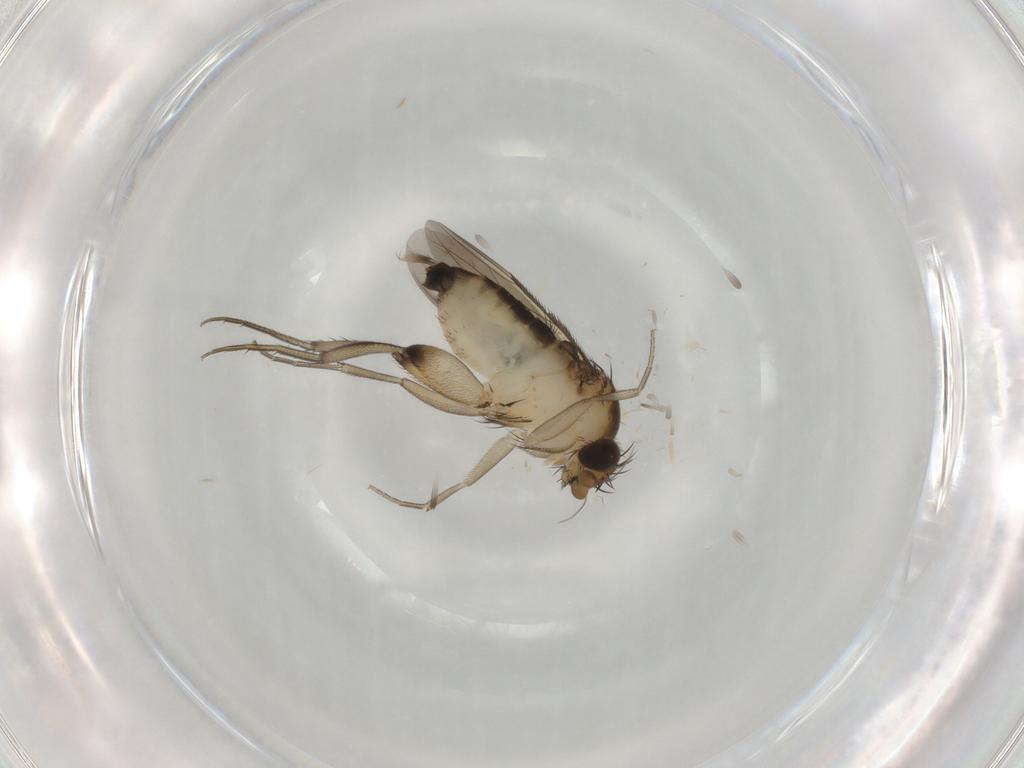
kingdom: Animalia
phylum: Arthropoda
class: Insecta
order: Diptera
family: Phoridae
